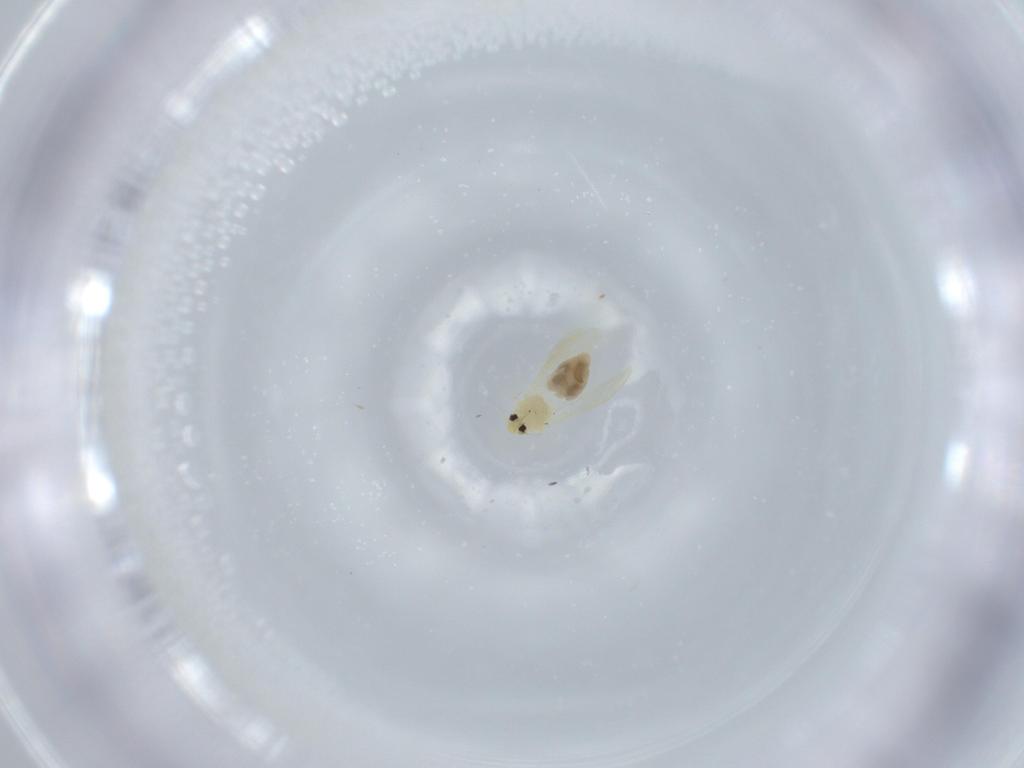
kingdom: Animalia
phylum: Arthropoda
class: Insecta
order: Hemiptera
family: Aleyrodidae
